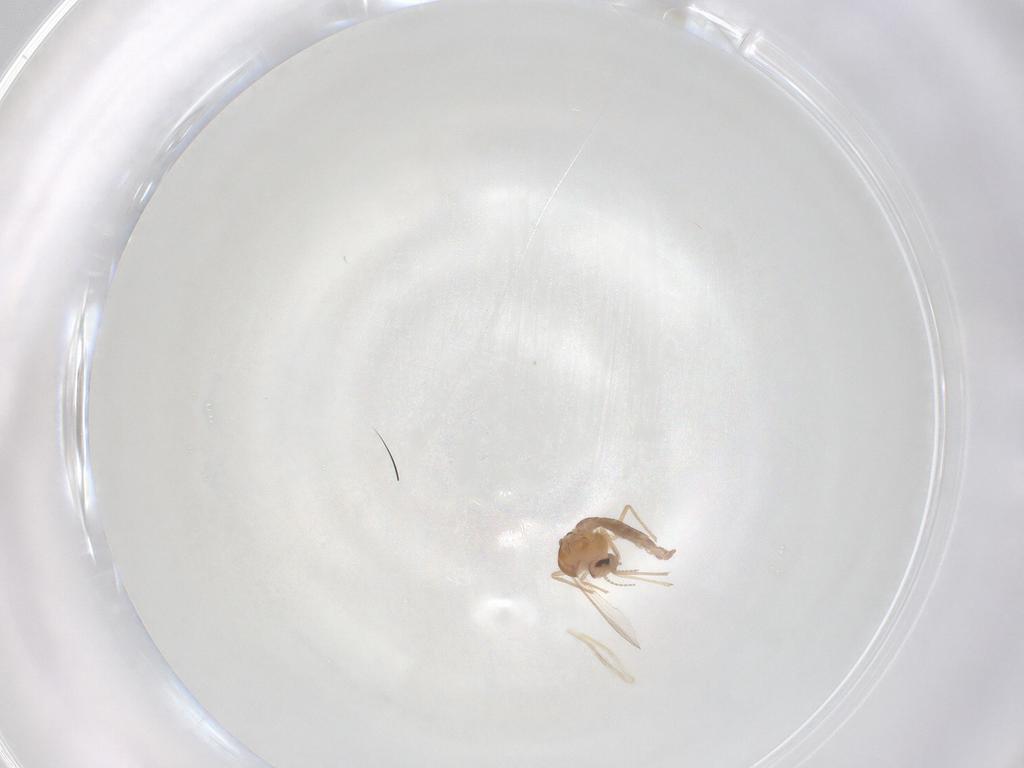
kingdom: Animalia
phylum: Arthropoda
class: Insecta
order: Diptera
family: Chironomidae
